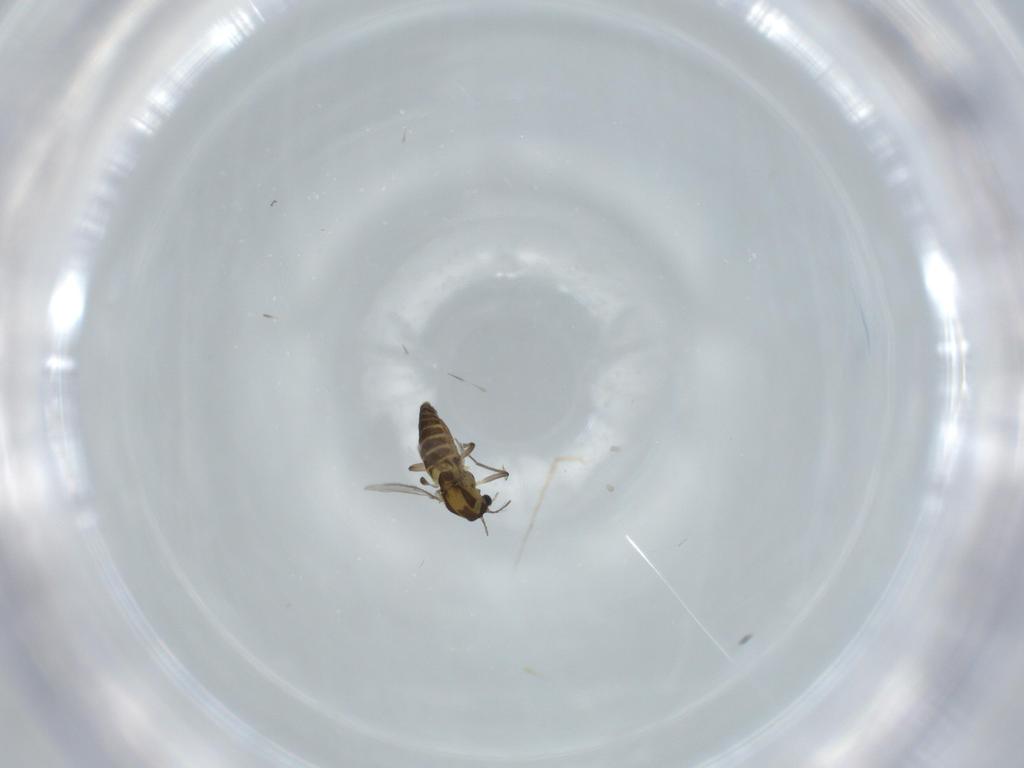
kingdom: Animalia
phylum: Arthropoda
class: Insecta
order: Diptera
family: Chironomidae
